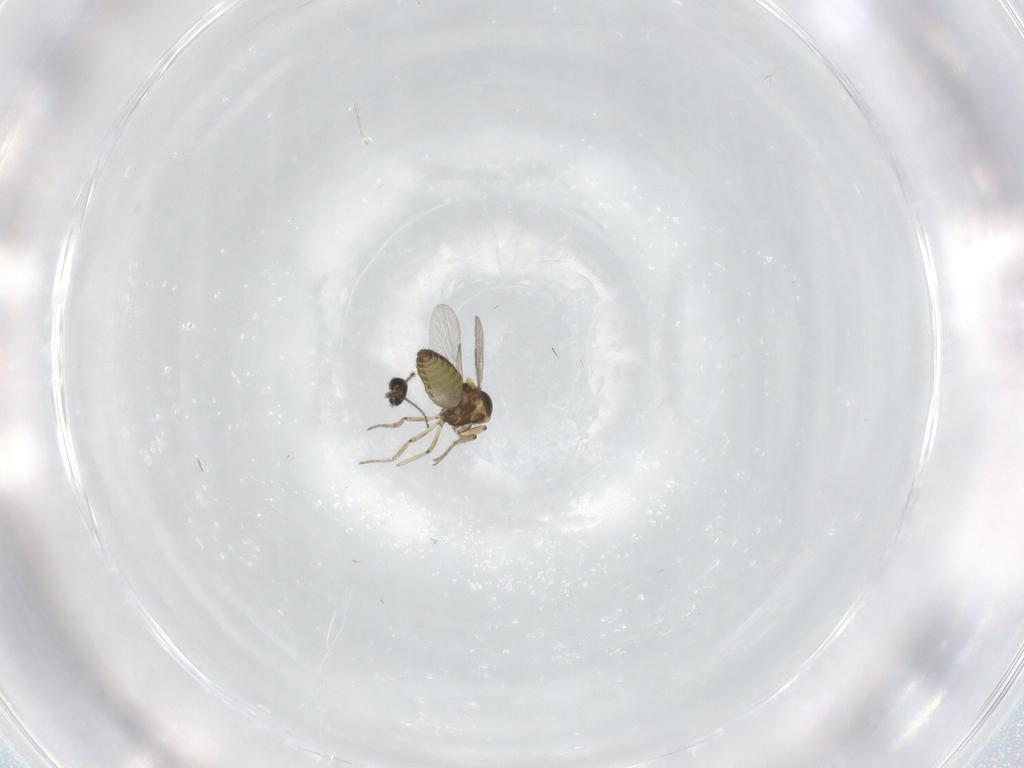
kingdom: Animalia
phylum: Arthropoda
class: Insecta
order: Diptera
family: Ceratopogonidae
